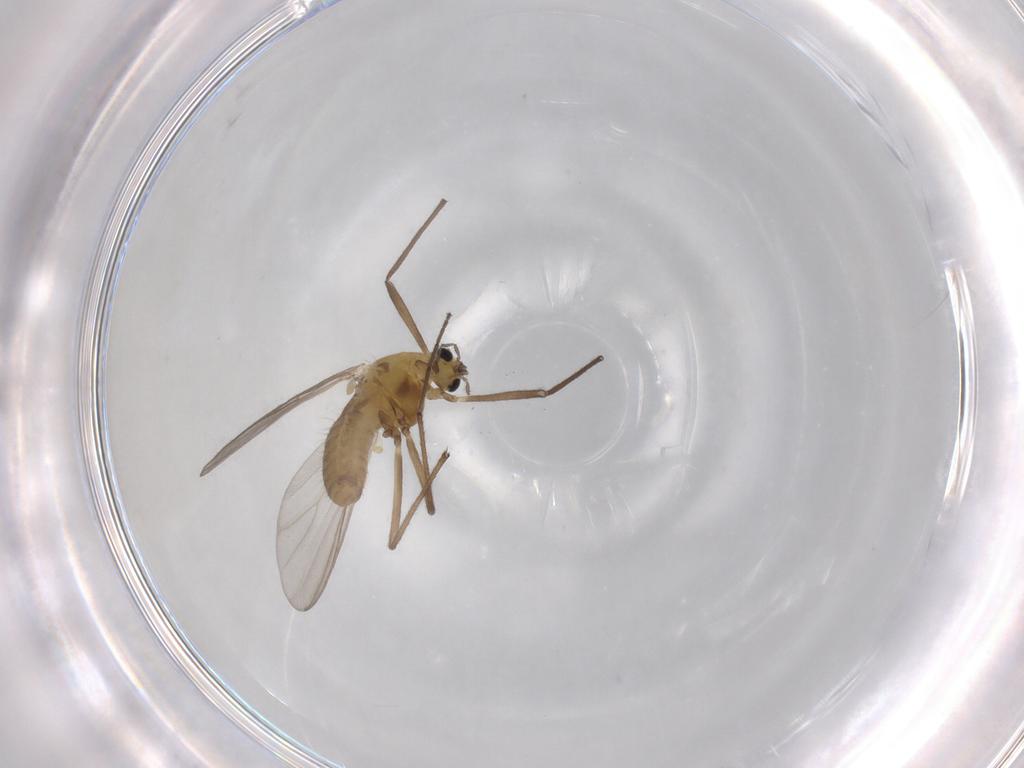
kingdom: Animalia
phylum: Arthropoda
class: Insecta
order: Diptera
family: Chironomidae
